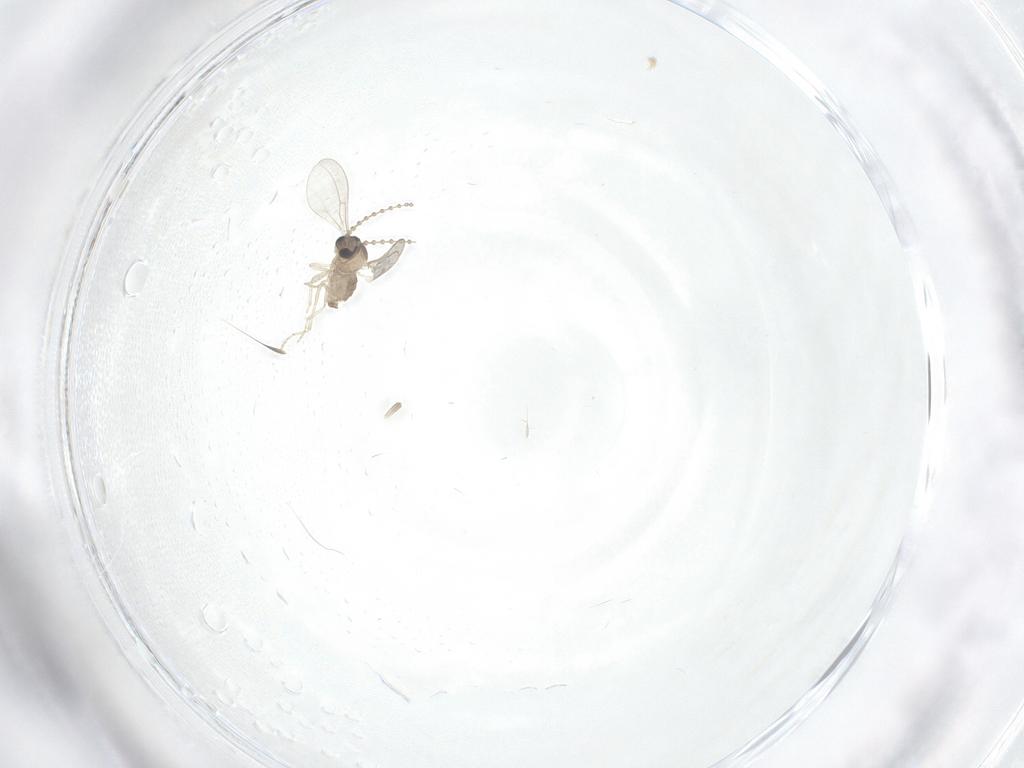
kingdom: Animalia
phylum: Arthropoda
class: Insecta
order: Diptera
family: Cecidomyiidae
